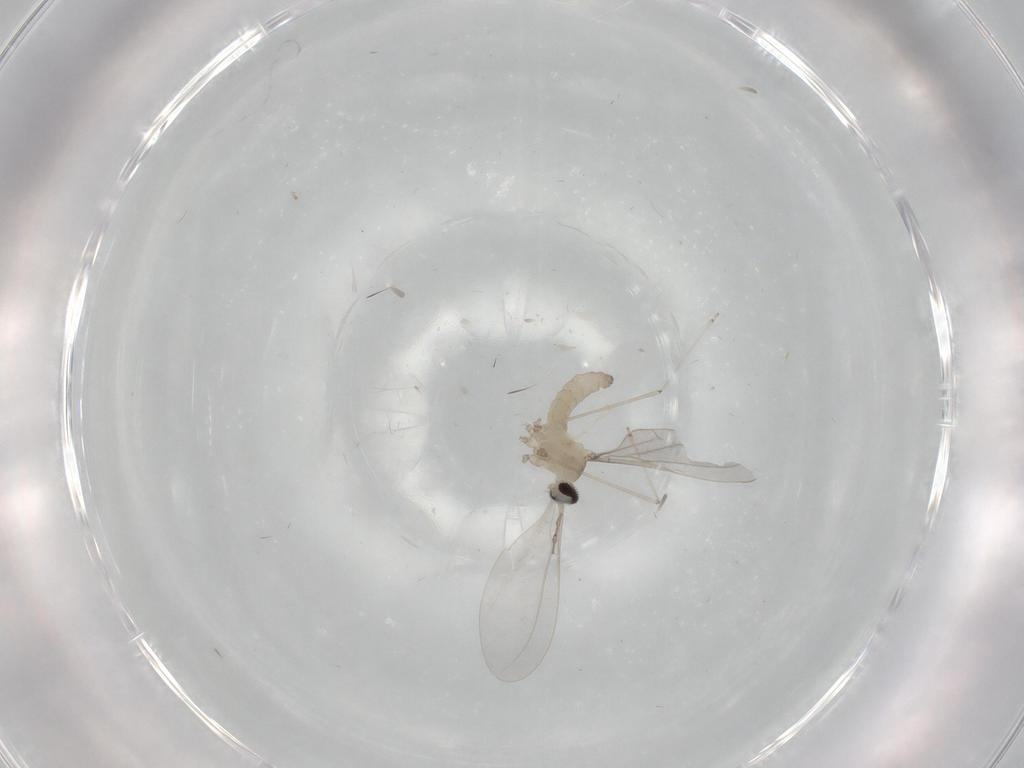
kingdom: Animalia
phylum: Arthropoda
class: Insecta
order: Diptera
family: Cecidomyiidae
